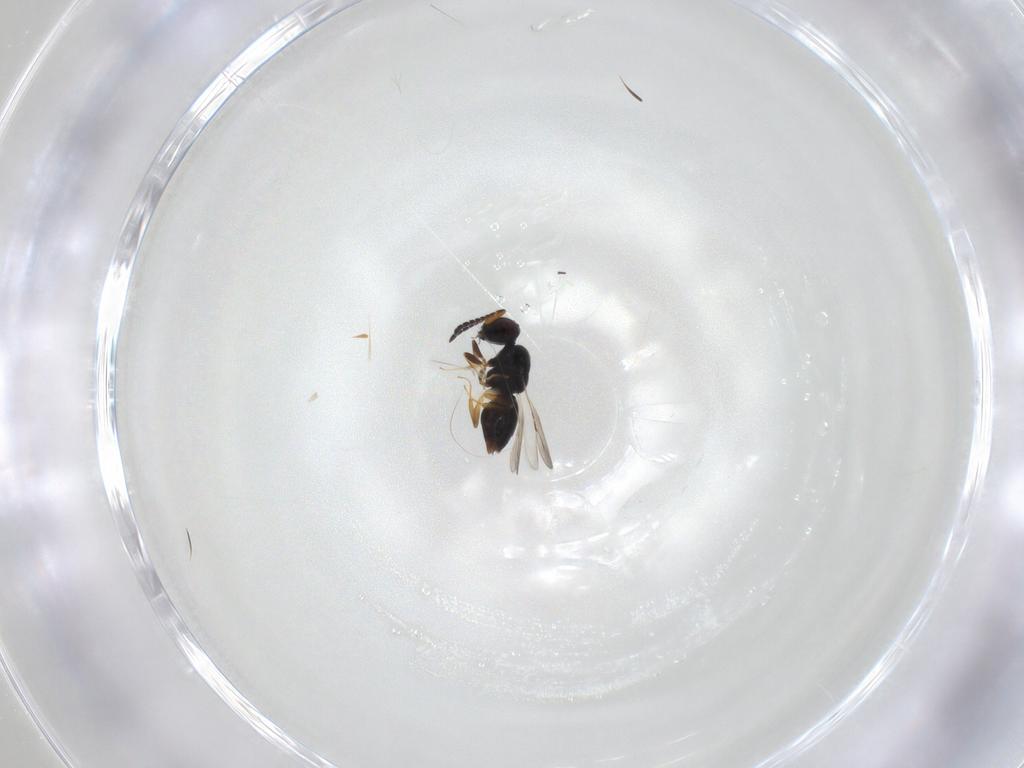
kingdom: Animalia
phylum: Arthropoda
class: Insecta
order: Hymenoptera
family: Ceraphronidae
